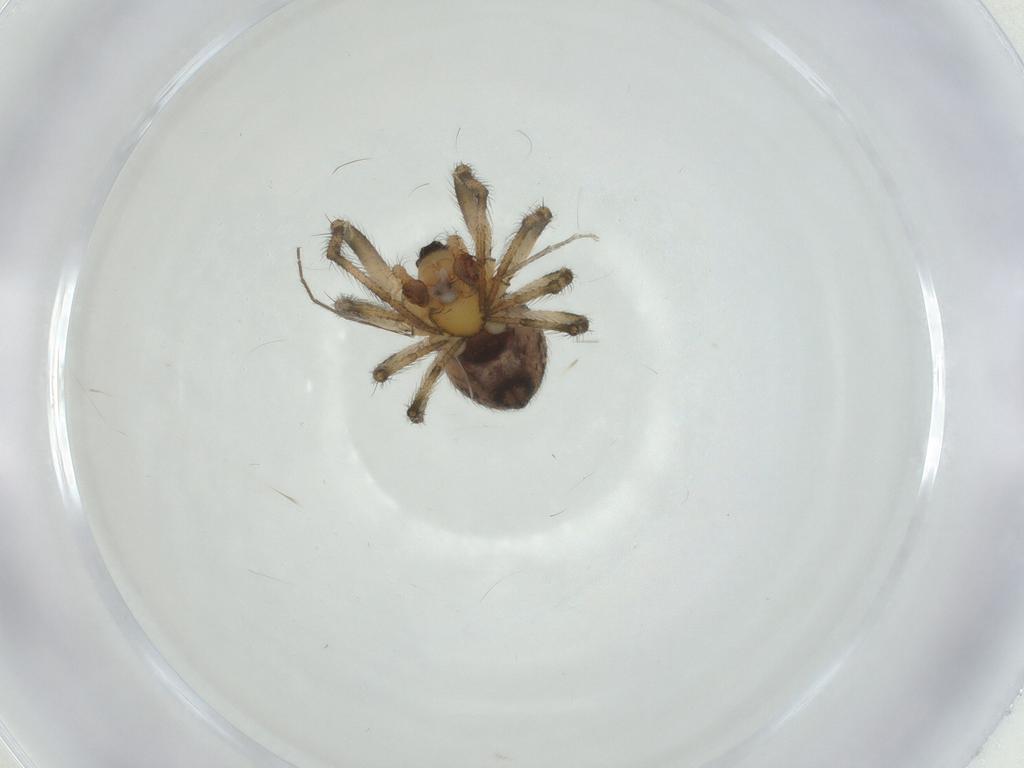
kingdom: Animalia
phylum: Arthropoda
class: Arachnida
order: Araneae
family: Theridiidae
